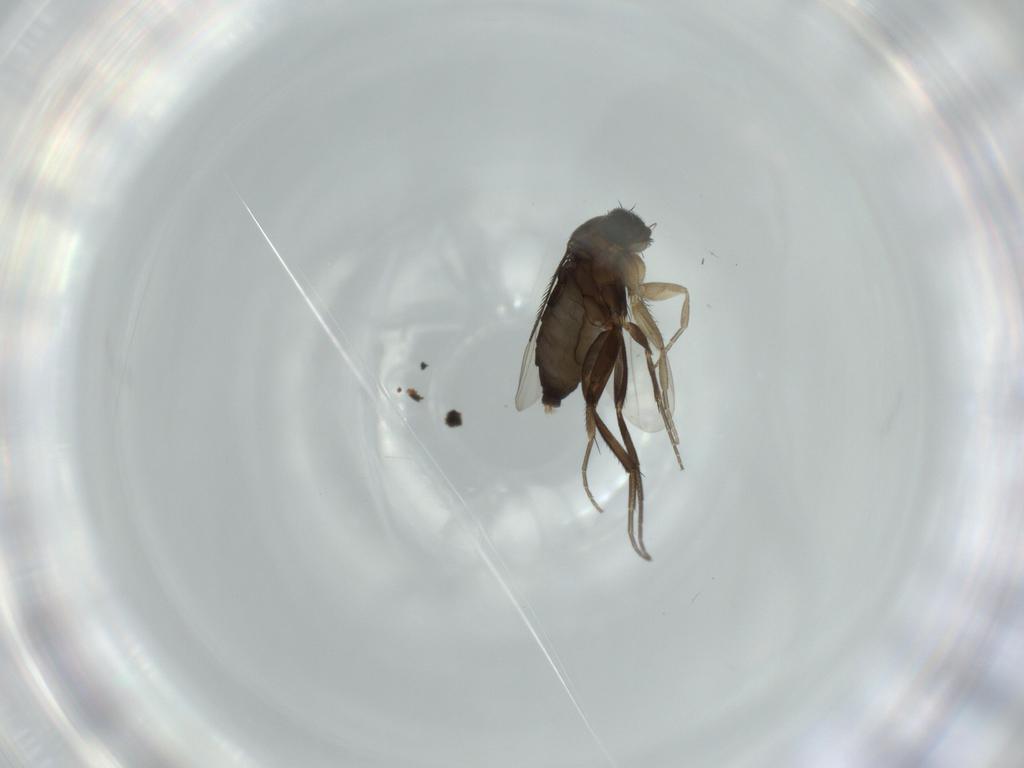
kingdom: Animalia
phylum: Arthropoda
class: Insecta
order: Diptera
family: Phoridae
